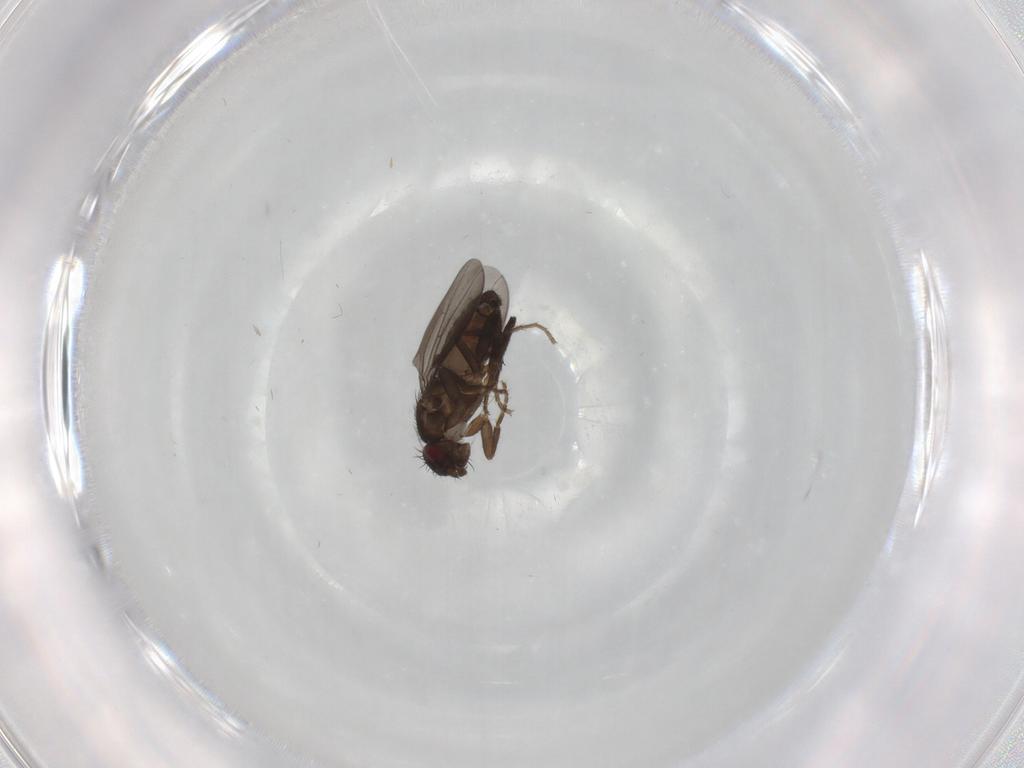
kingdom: Animalia
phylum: Arthropoda
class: Insecta
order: Diptera
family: Sphaeroceridae
